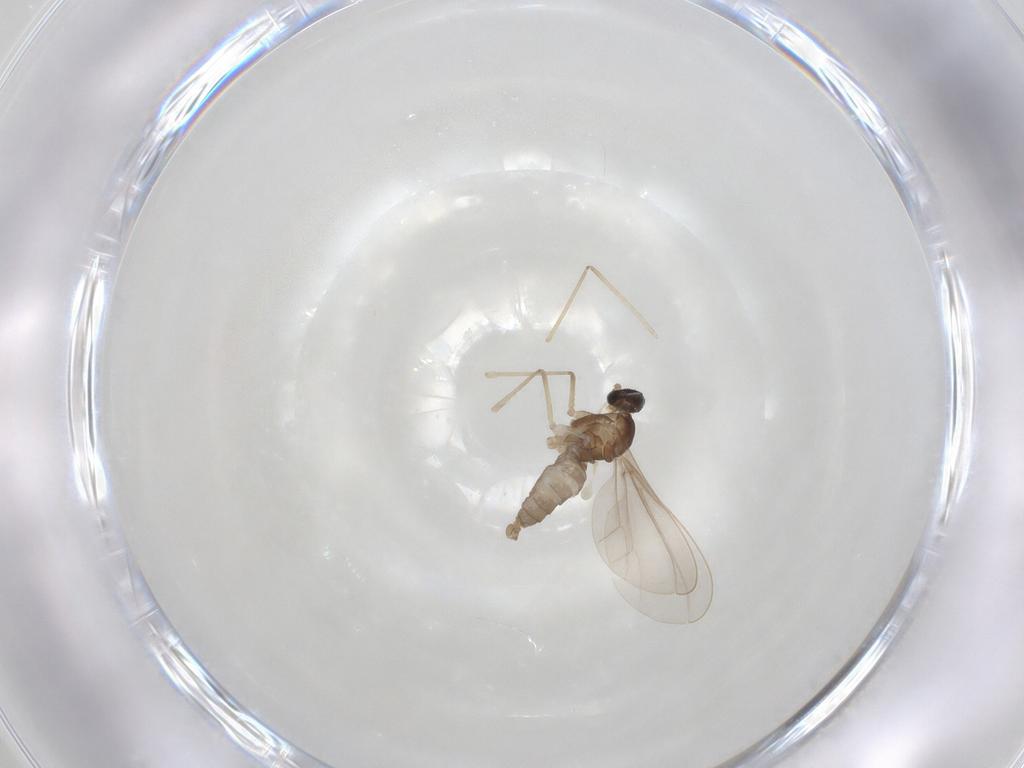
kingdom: Animalia
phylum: Arthropoda
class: Insecta
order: Diptera
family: Cecidomyiidae
